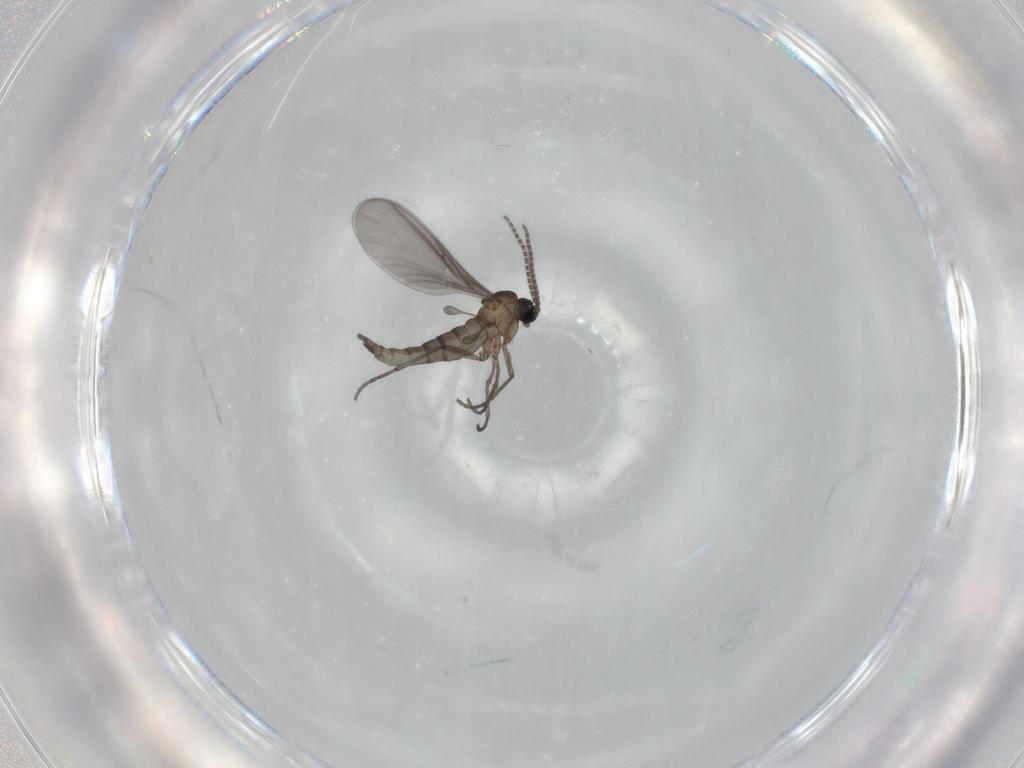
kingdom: Animalia
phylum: Arthropoda
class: Insecta
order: Diptera
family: Sciaridae
